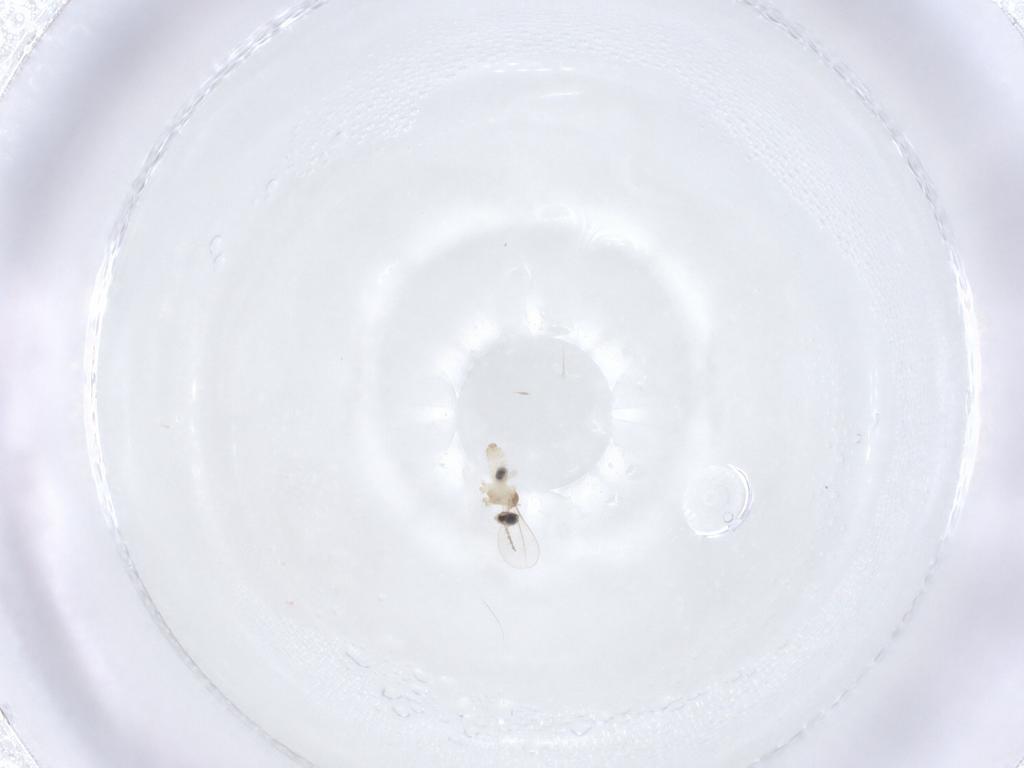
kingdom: Animalia
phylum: Arthropoda
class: Insecta
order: Diptera
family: Cecidomyiidae
